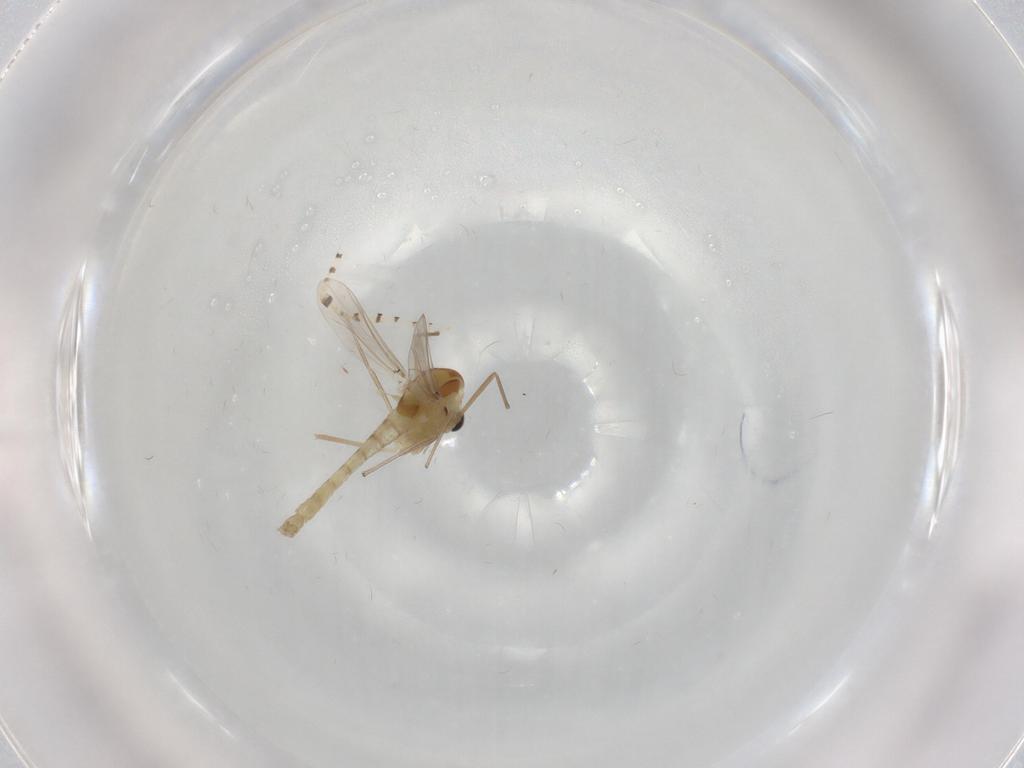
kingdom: Animalia
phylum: Arthropoda
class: Insecta
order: Diptera
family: Chironomidae
